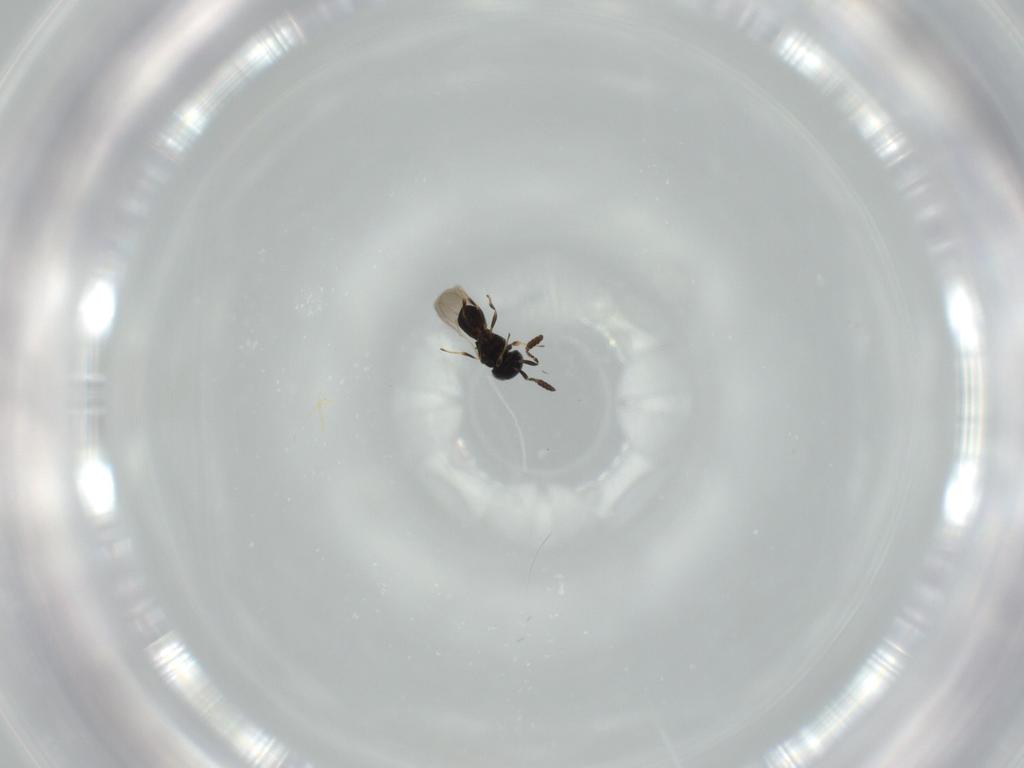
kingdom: Animalia
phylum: Arthropoda
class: Insecta
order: Hymenoptera
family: Scelionidae
